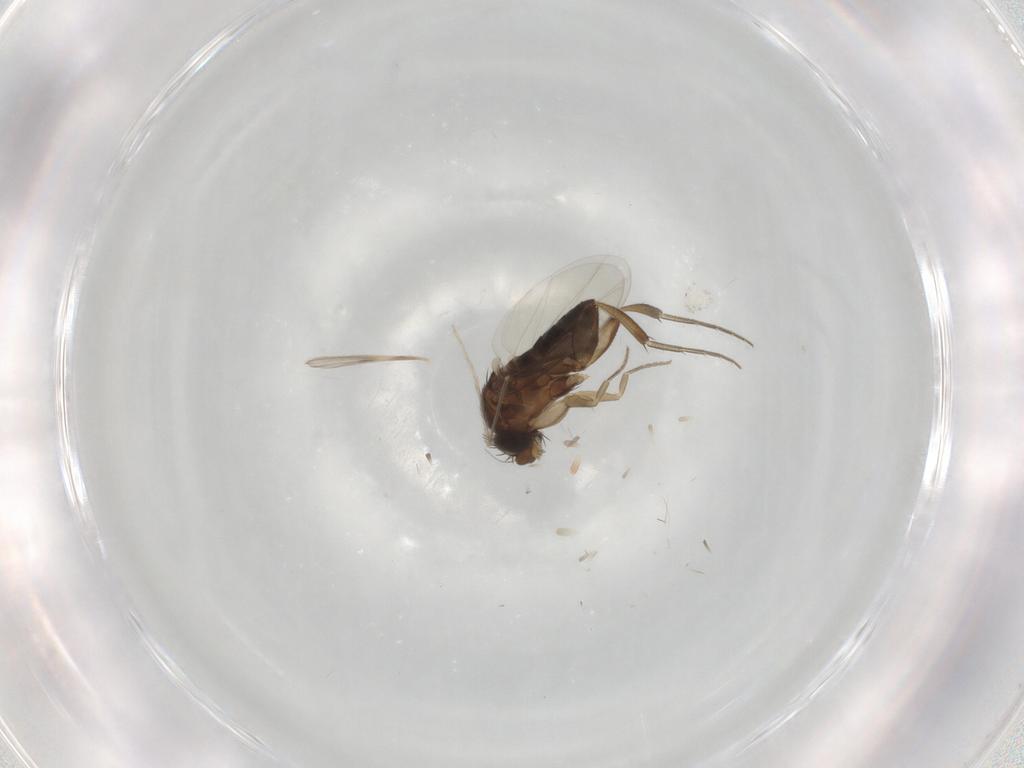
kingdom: Animalia
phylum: Arthropoda
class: Insecta
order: Diptera
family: Phoridae
